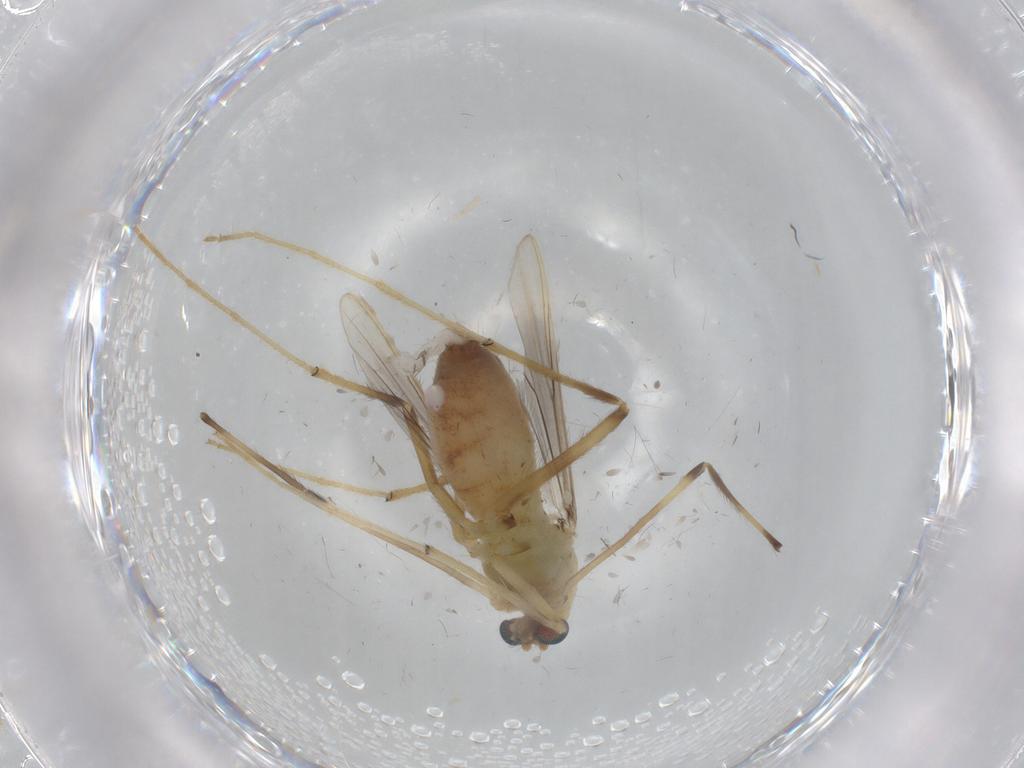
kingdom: Animalia
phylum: Arthropoda
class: Insecta
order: Diptera
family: Chironomidae
